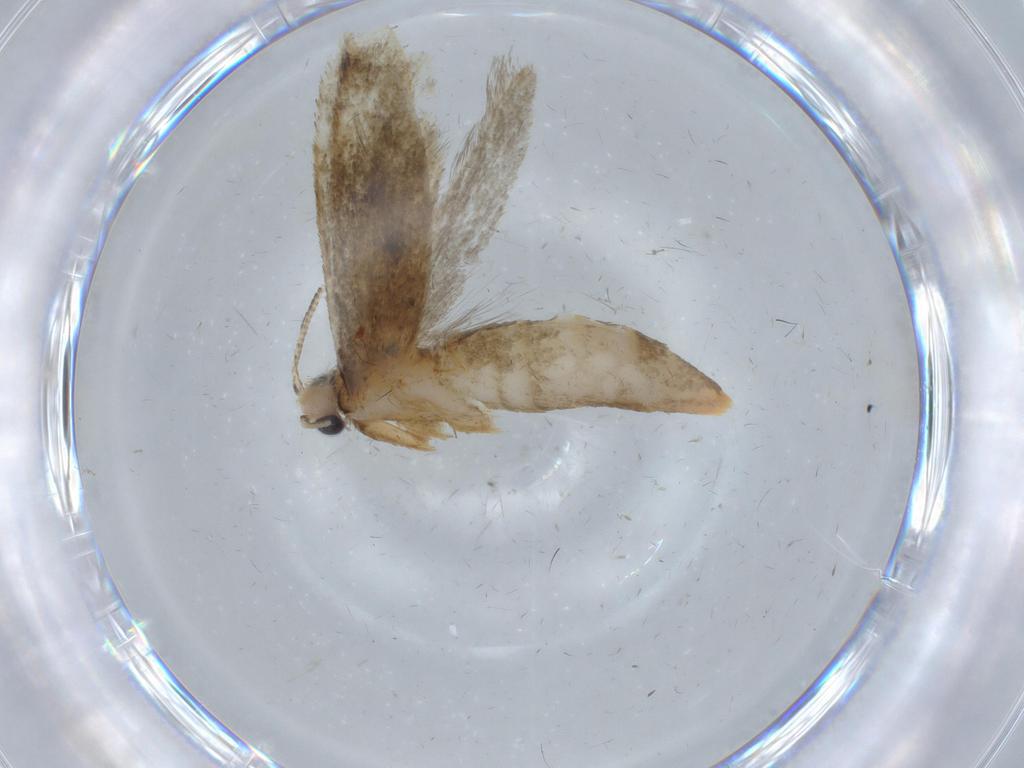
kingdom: Animalia
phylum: Arthropoda
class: Insecta
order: Lepidoptera
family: Tineidae
